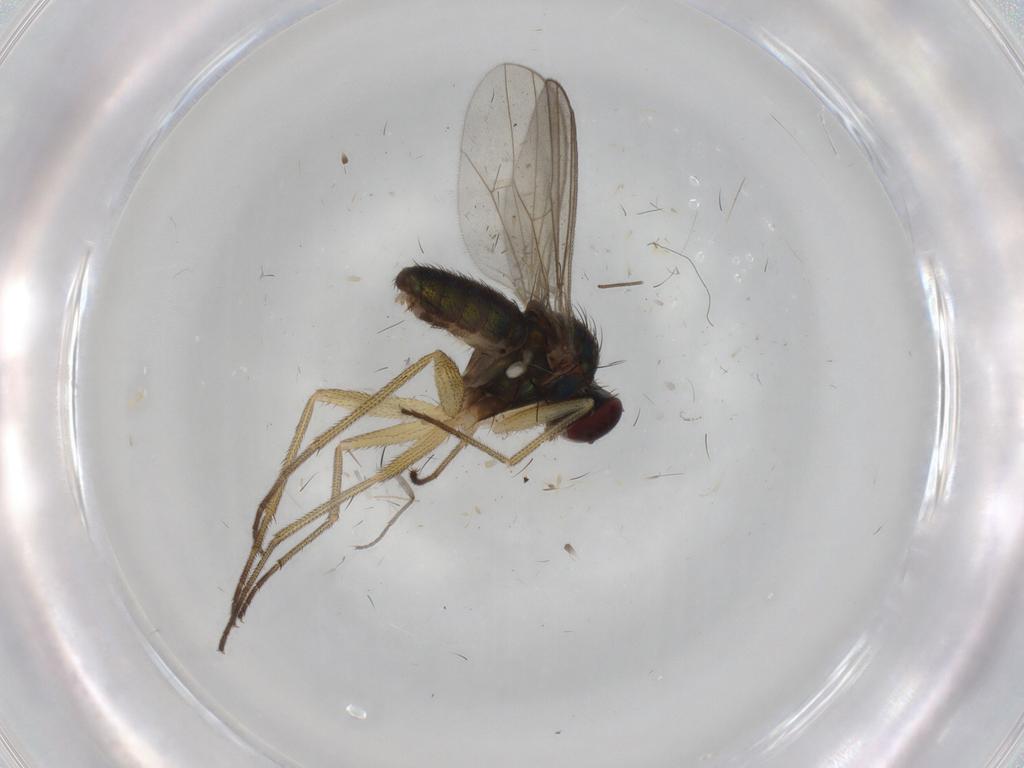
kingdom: Animalia
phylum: Arthropoda
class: Insecta
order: Diptera
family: Dolichopodidae
